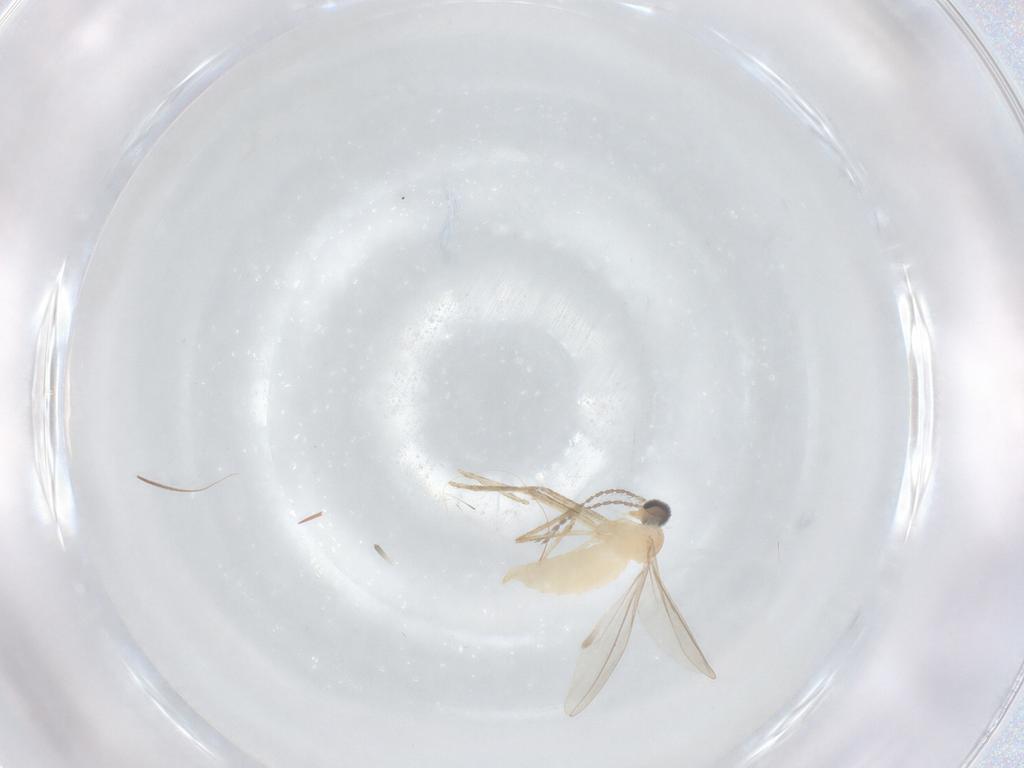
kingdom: Animalia
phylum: Arthropoda
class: Insecta
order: Diptera
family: Cecidomyiidae
